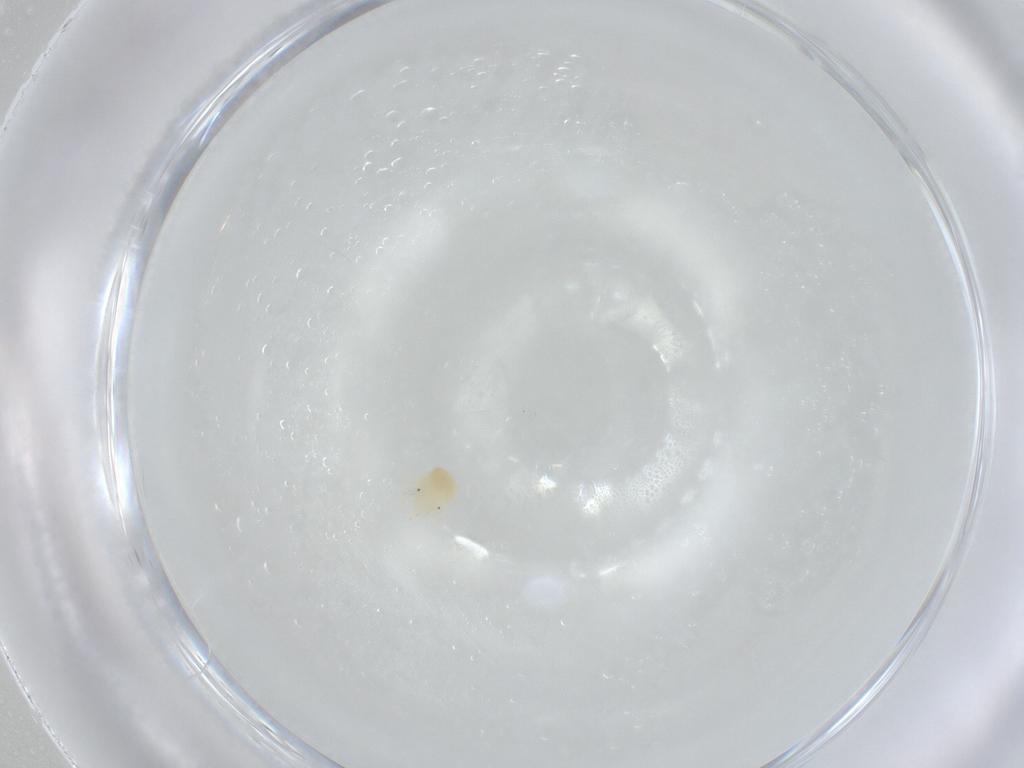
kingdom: Animalia
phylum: Arthropoda
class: Arachnida
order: Trombidiformes
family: Anystidae
